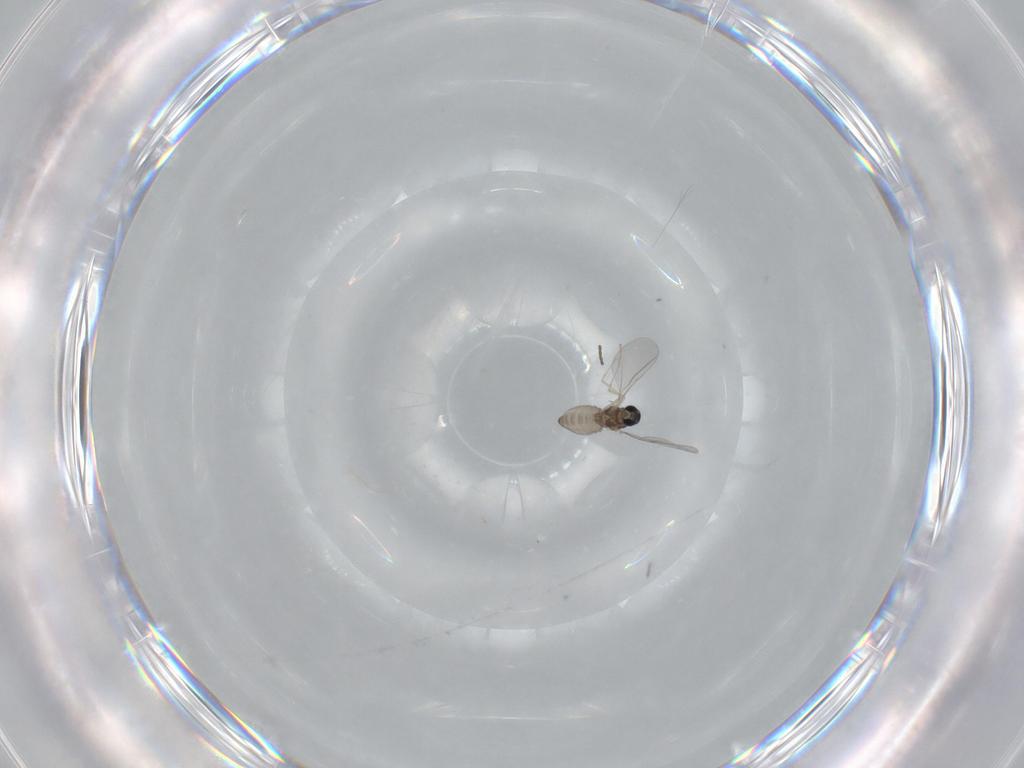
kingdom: Animalia
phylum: Arthropoda
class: Insecta
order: Diptera
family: Cecidomyiidae
